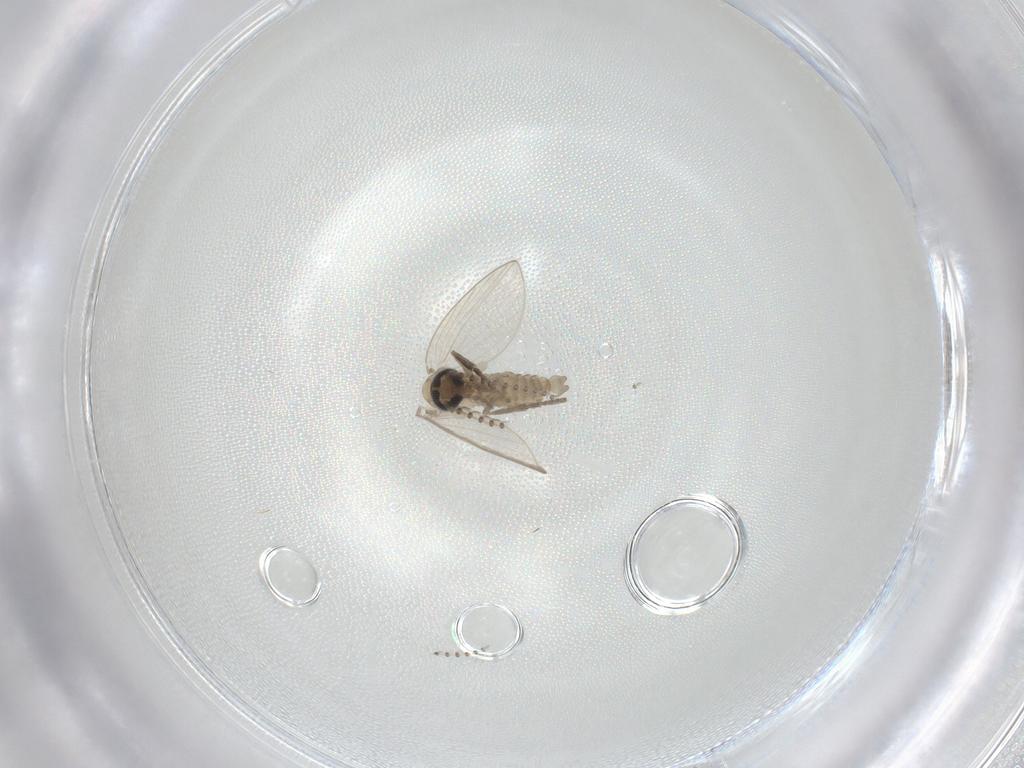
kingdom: Animalia
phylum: Arthropoda
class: Insecta
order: Diptera
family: Psychodidae
